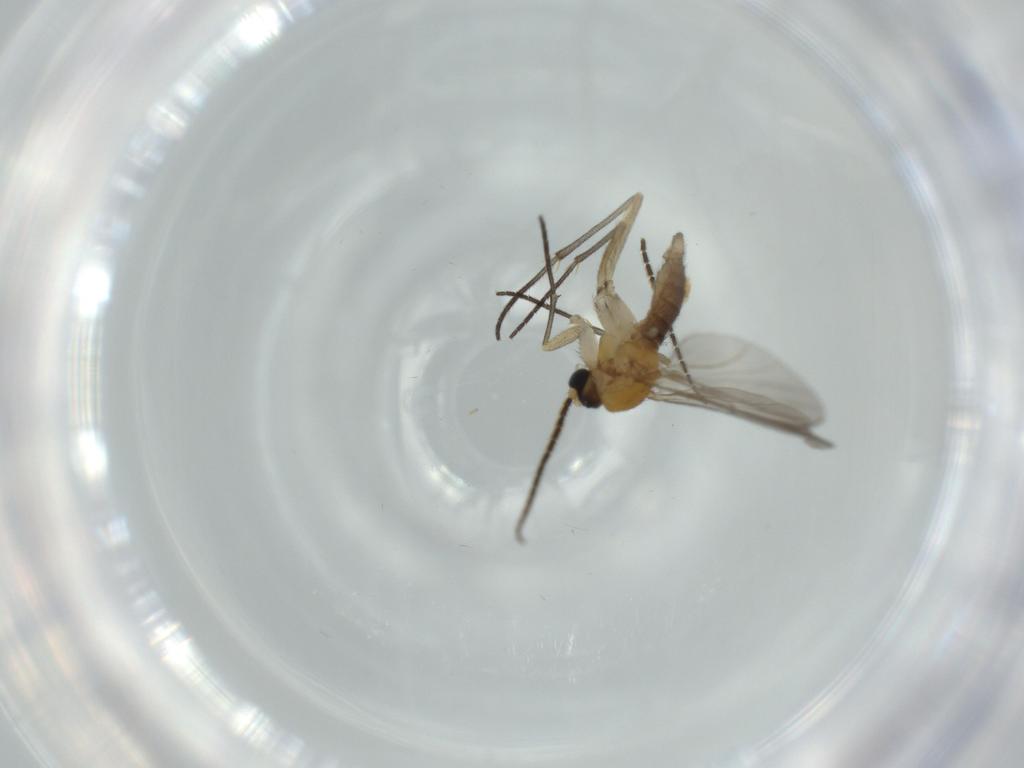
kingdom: Animalia
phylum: Arthropoda
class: Insecta
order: Diptera
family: Sciaridae
